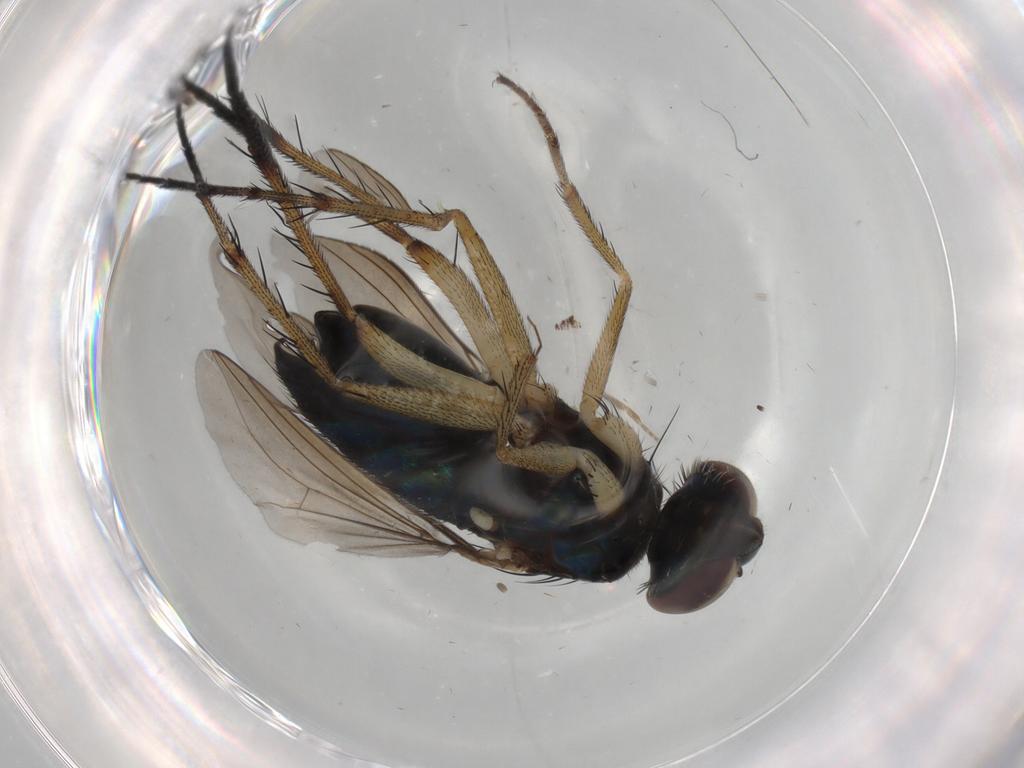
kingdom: Animalia
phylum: Arthropoda
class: Insecta
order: Diptera
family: Dolichopodidae
